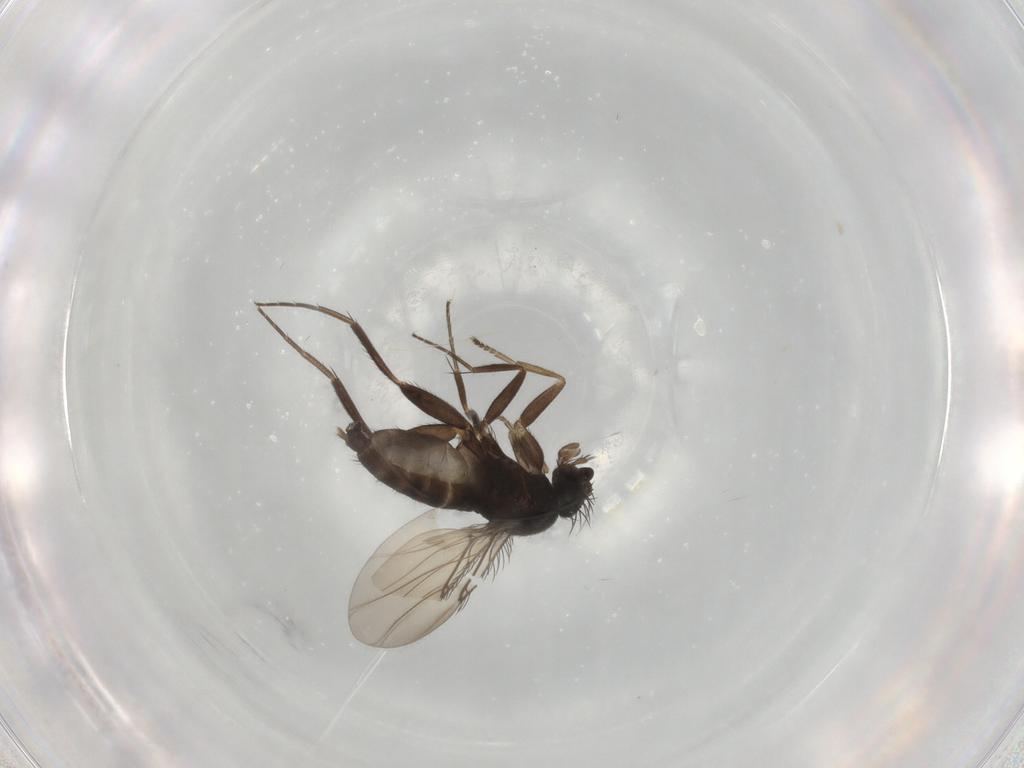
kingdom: Animalia
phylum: Arthropoda
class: Insecta
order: Diptera
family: Phoridae
